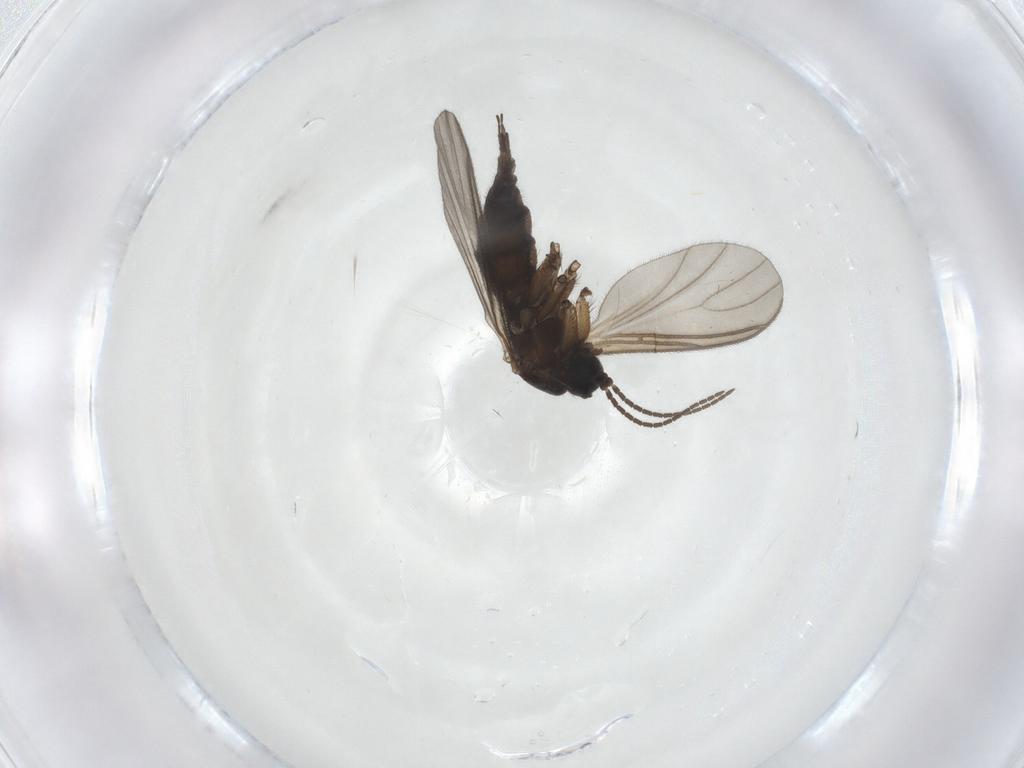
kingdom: Animalia
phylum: Arthropoda
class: Insecta
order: Diptera
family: Sciaridae
